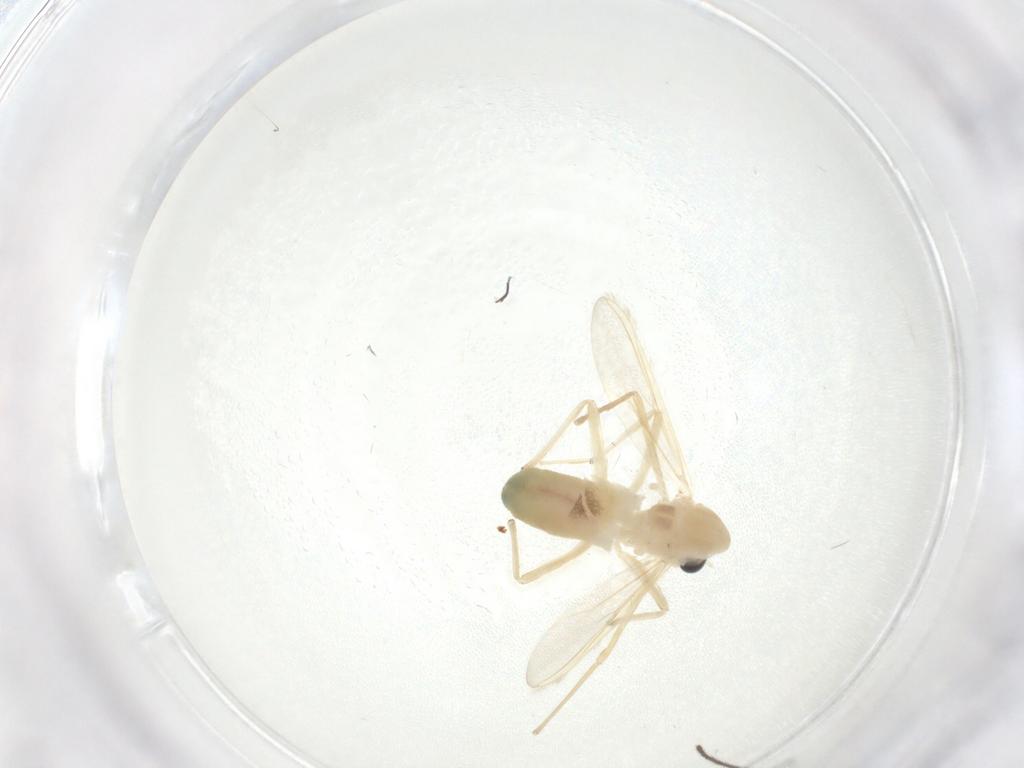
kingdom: Animalia
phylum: Arthropoda
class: Insecta
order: Diptera
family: Chironomidae
